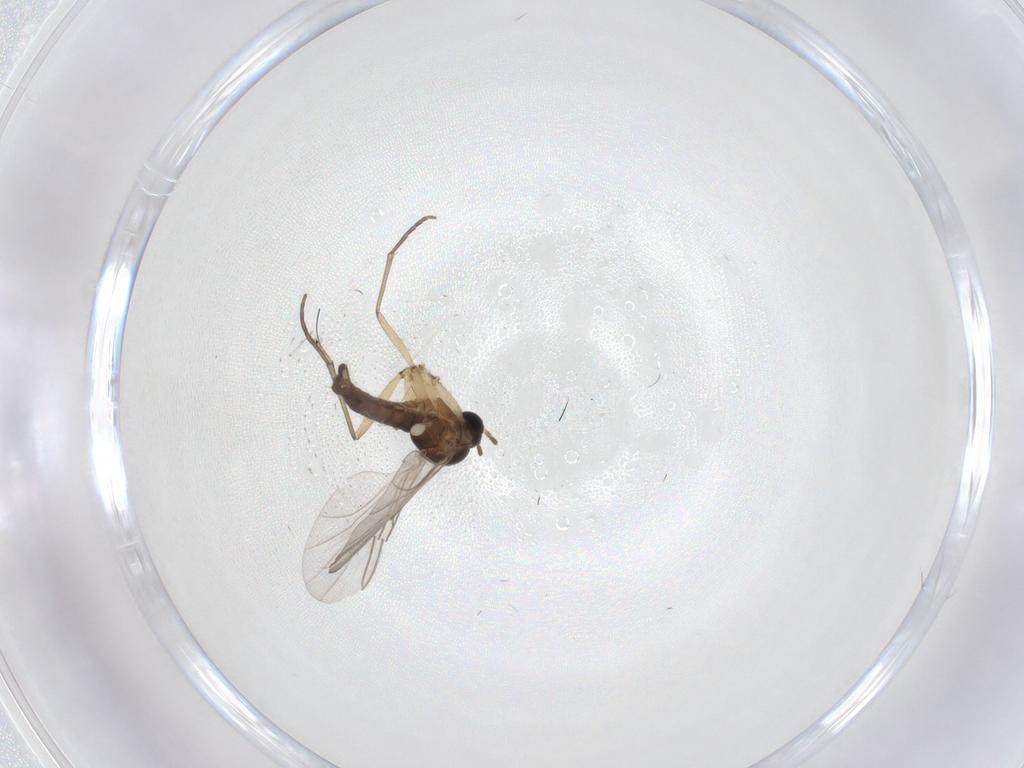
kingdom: Animalia
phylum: Arthropoda
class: Insecta
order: Diptera
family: Sciaridae
